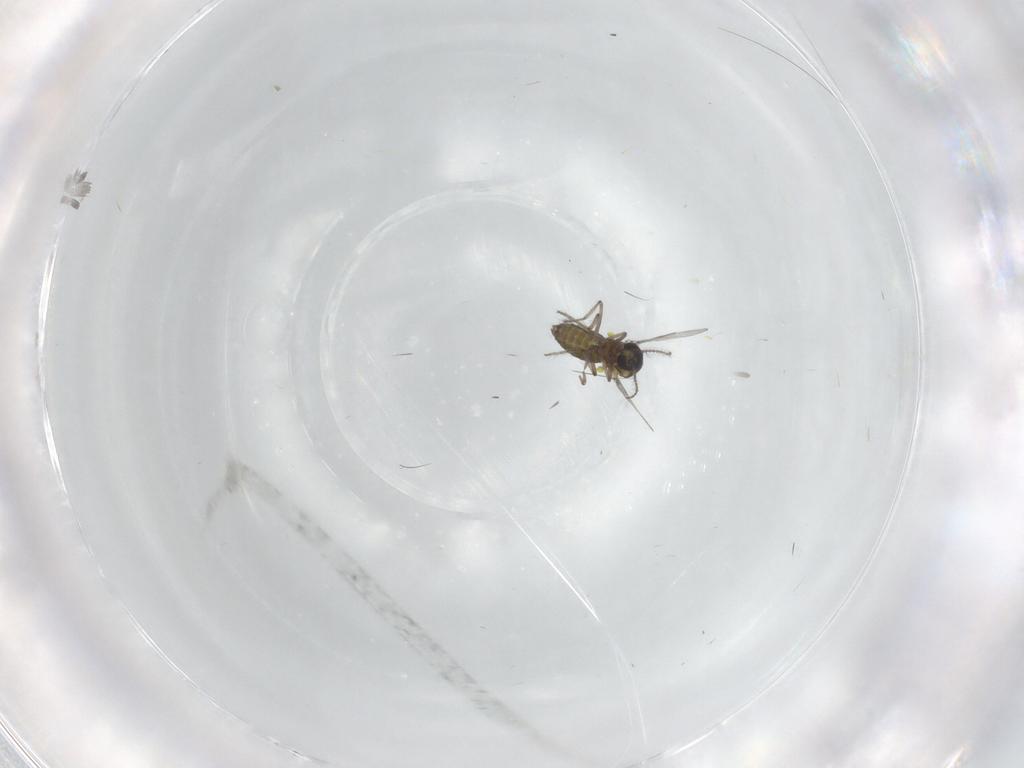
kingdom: Animalia
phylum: Arthropoda
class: Insecta
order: Diptera
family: Ceratopogonidae
